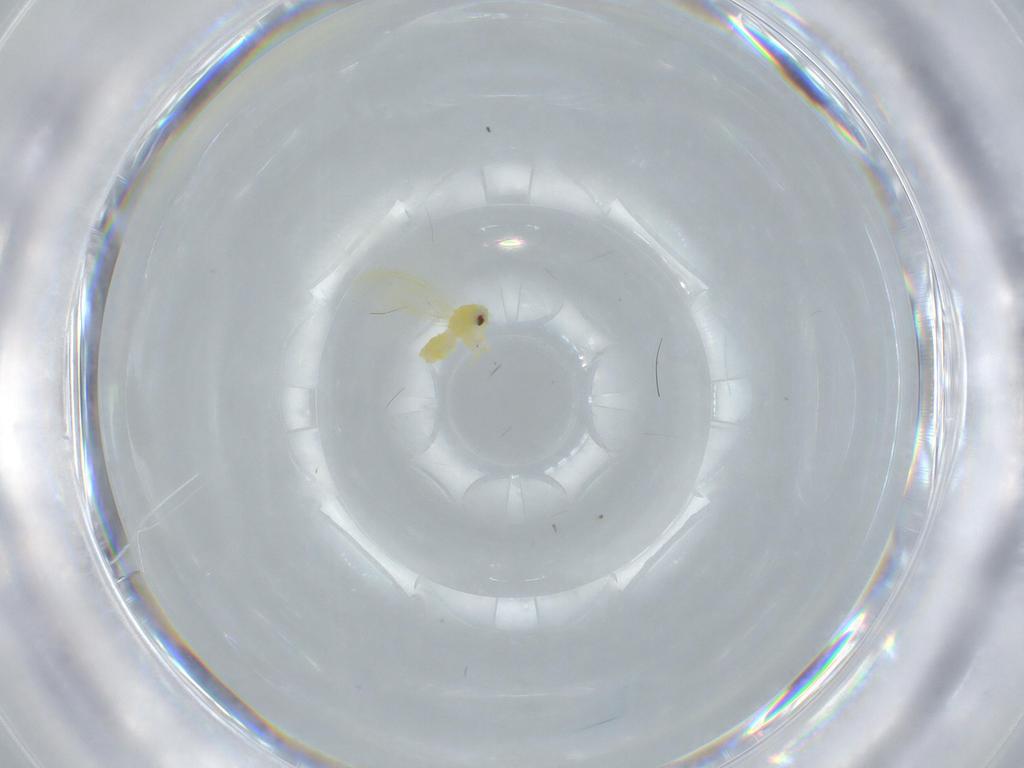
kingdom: Animalia
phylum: Arthropoda
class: Insecta
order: Hemiptera
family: Aleyrodidae
